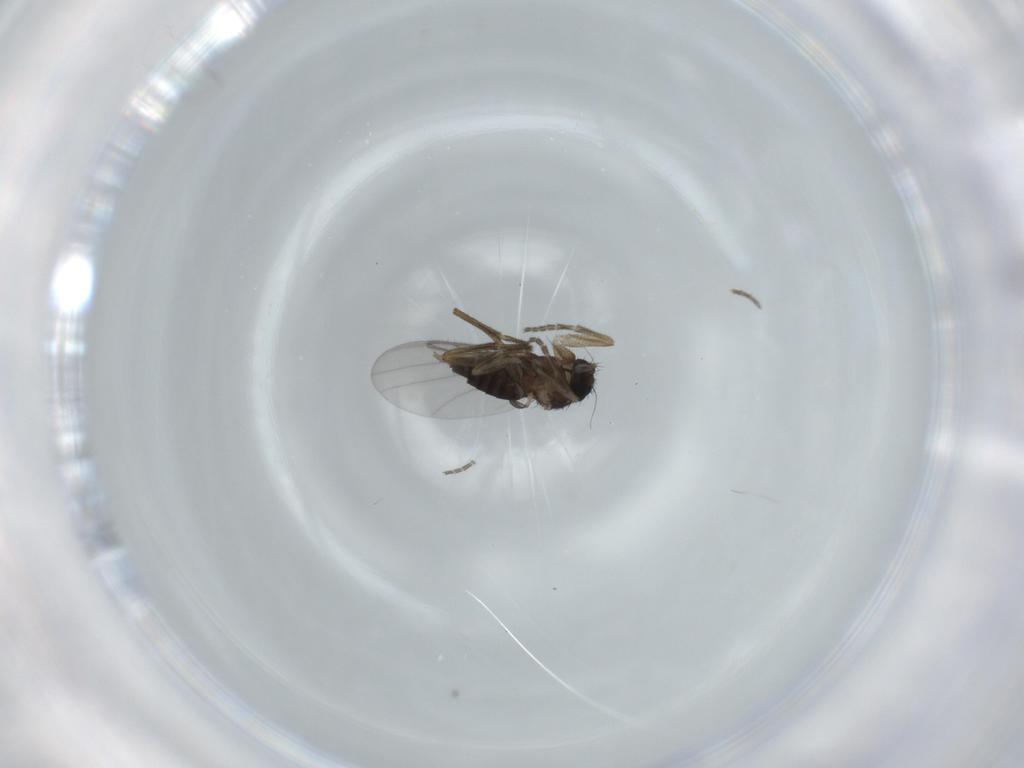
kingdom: Animalia
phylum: Arthropoda
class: Insecta
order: Diptera
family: Phoridae
